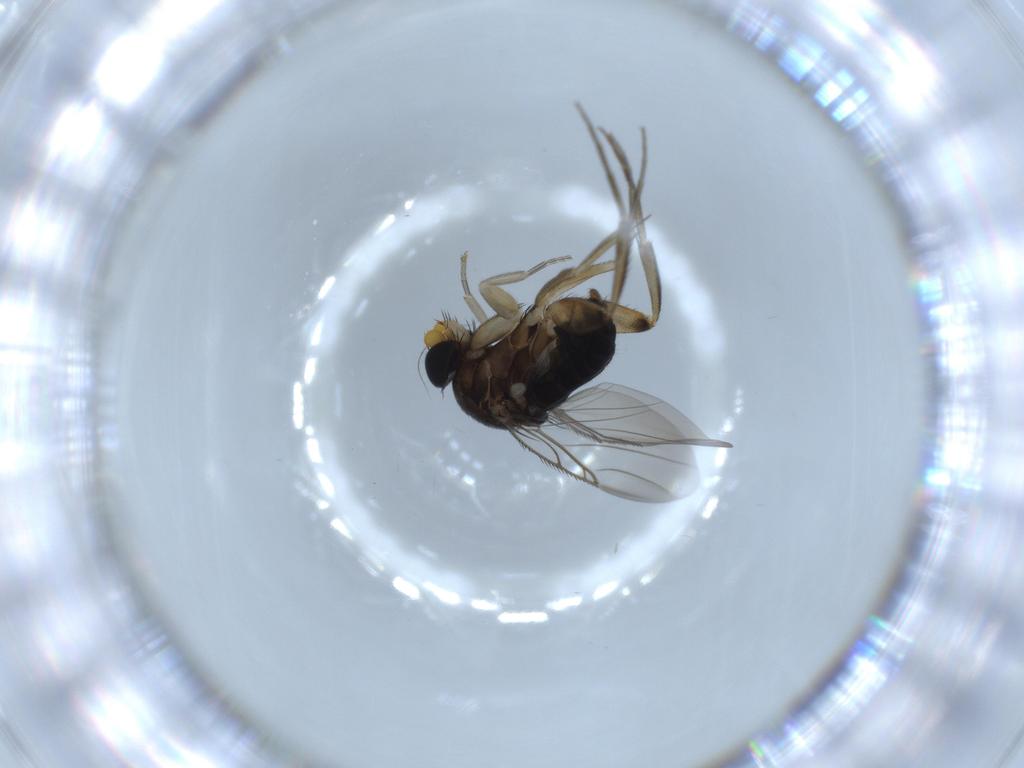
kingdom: Animalia
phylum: Arthropoda
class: Insecta
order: Diptera
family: Phoridae
